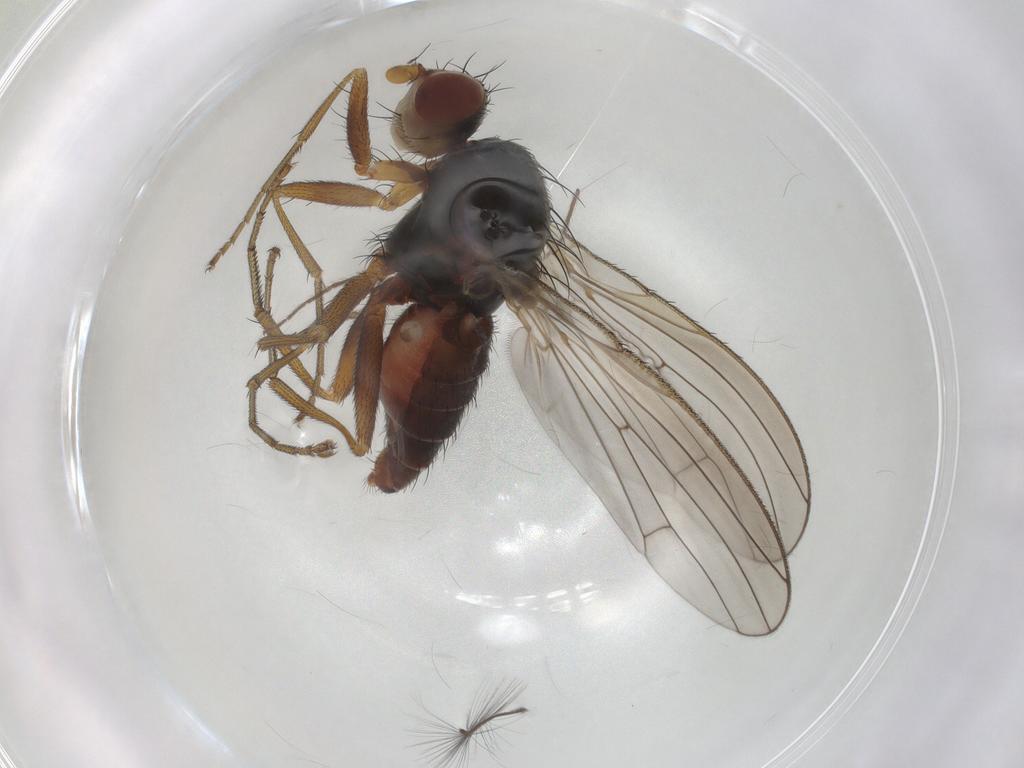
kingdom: Animalia
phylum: Arthropoda
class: Insecta
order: Diptera
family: Heleomyzidae
